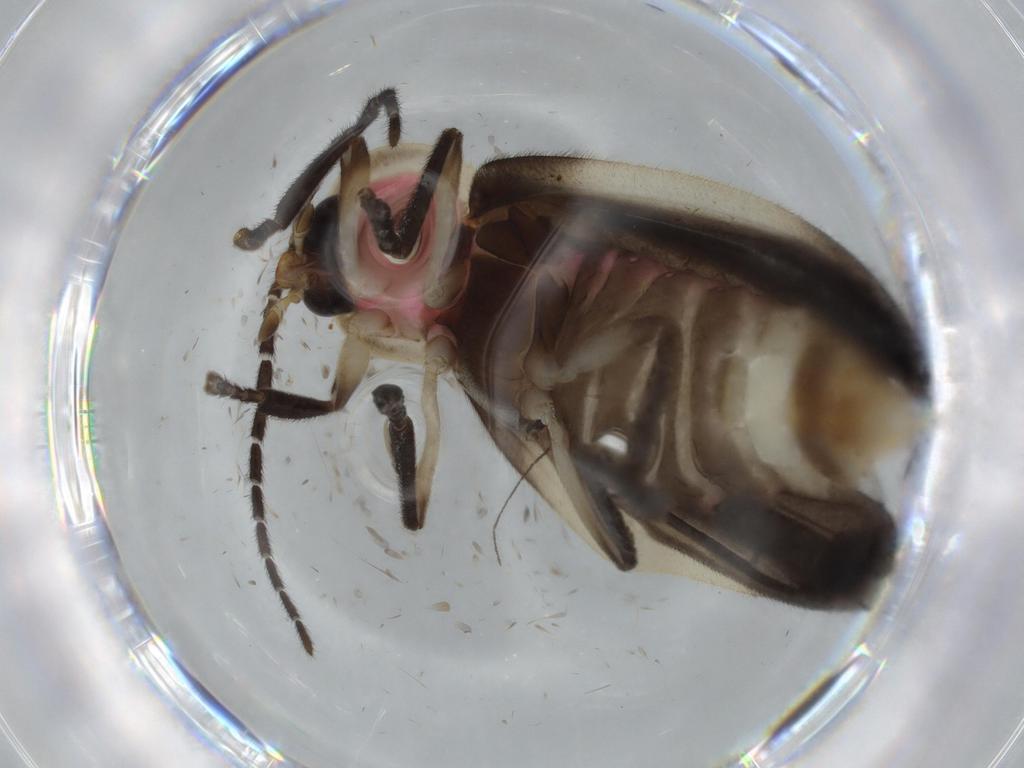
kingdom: Animalia
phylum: Arthropoda
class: Insecta
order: Coleoptera
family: Lampyridae
